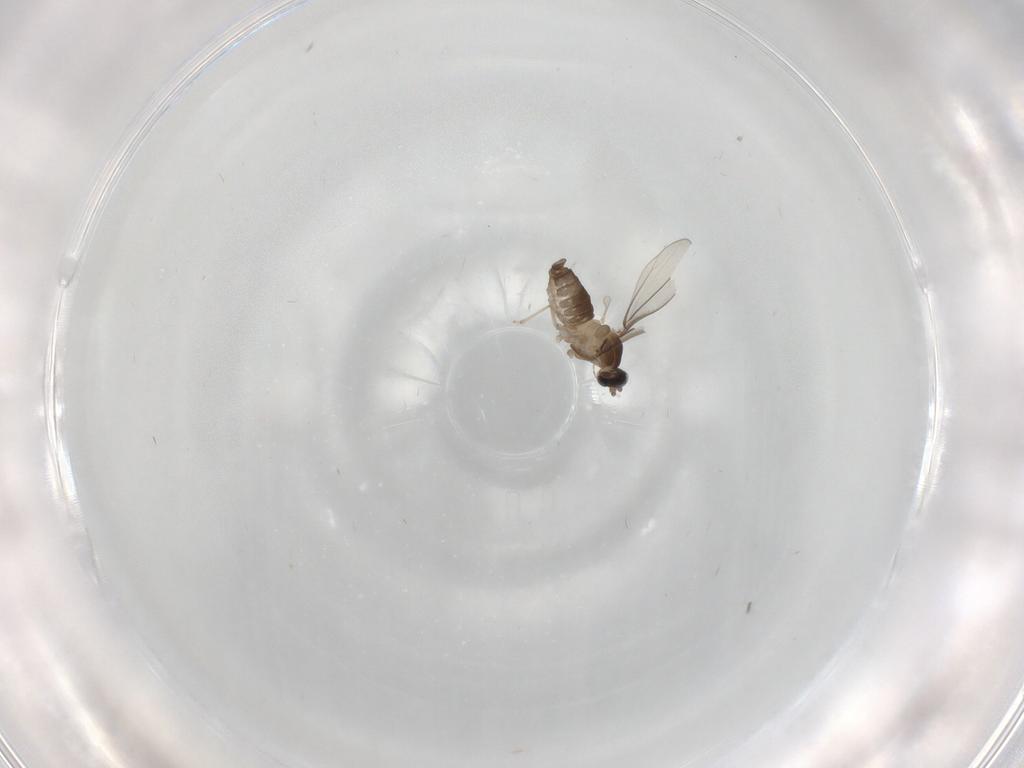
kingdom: Animalia
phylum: Arthropoda
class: Insecta
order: Diptera
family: Cecidomyiidae
